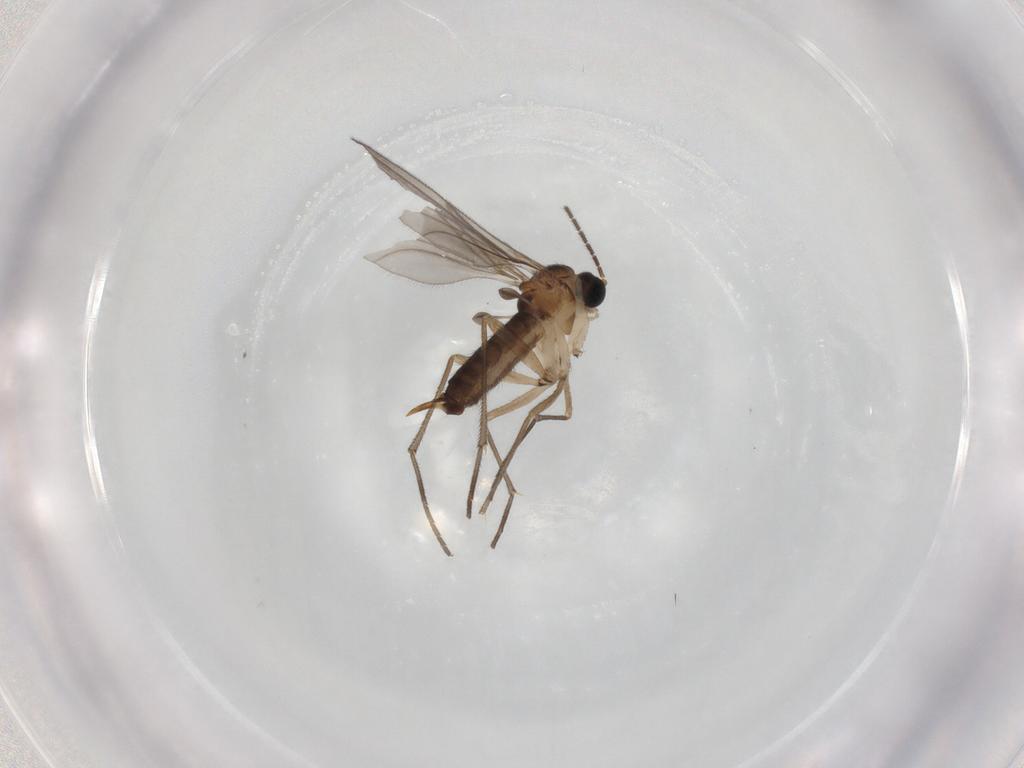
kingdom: Animalia
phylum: Arthropoda
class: Insecta
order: Diptera
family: Sciaridae
